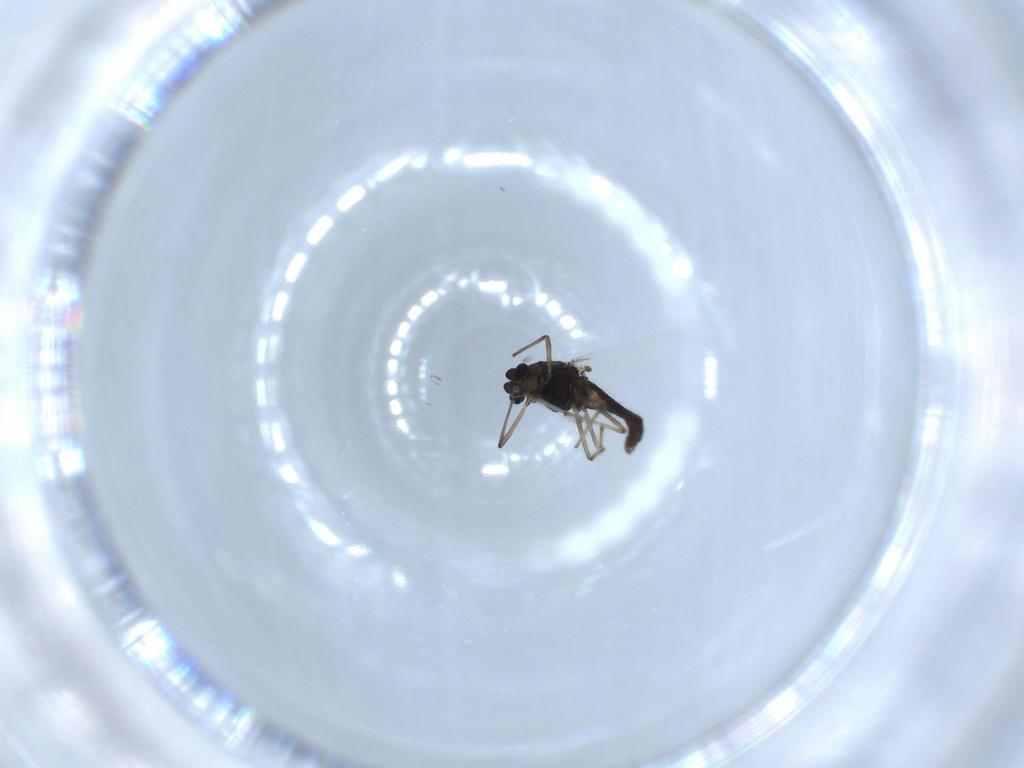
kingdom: Animalia
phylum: Arthropoda
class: Insecta
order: Diptera
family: Chironomidae
